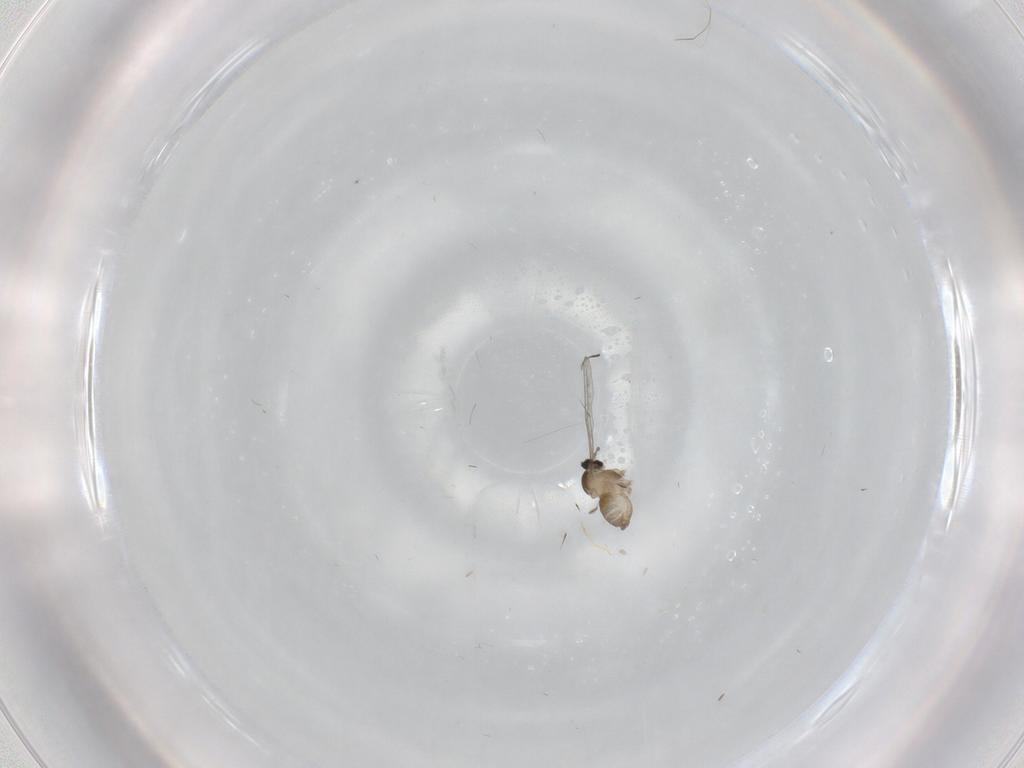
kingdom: Animalia
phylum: Arthropoda
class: Insecta
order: Diptera
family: Cecidomyiidae
